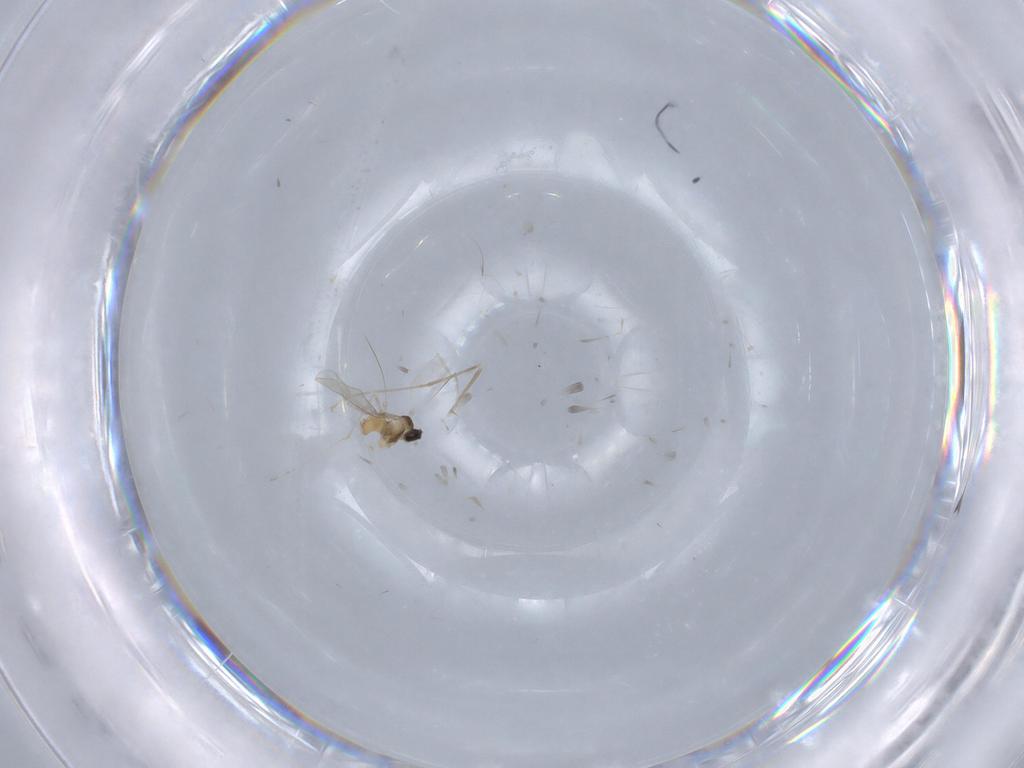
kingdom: Animalia
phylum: Arthropoda
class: Insecta
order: Diptera
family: Cecidomyiidae
